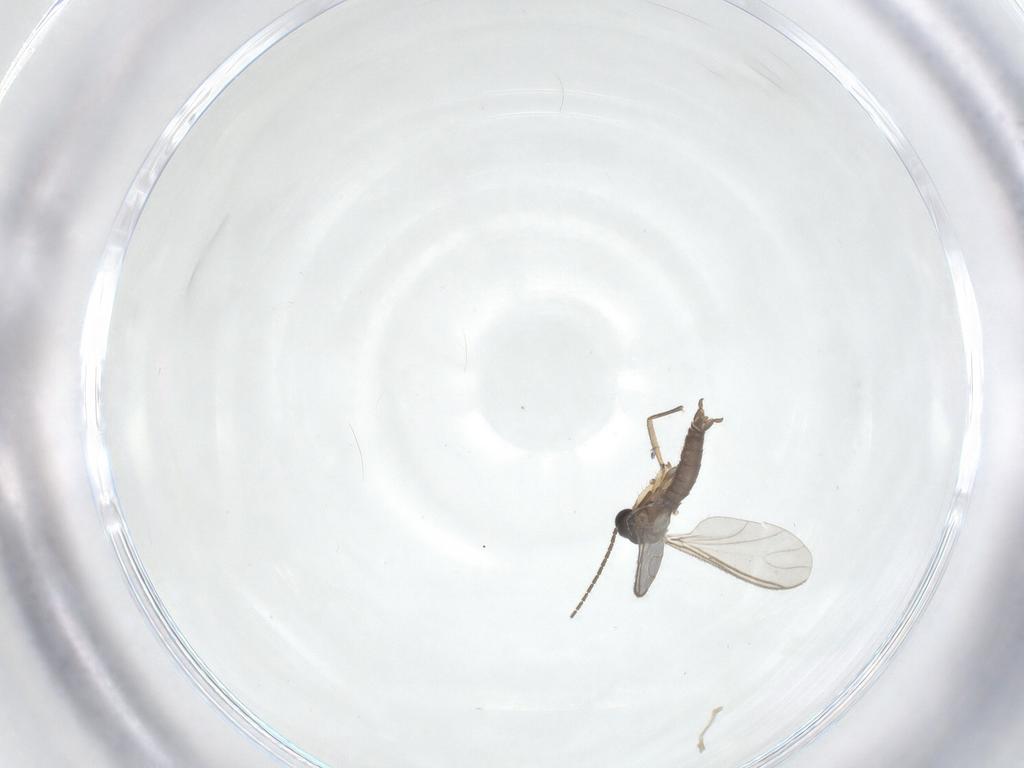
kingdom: Animalia
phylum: Arthropoda
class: Insecta
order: Diptera
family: Sciaridae
